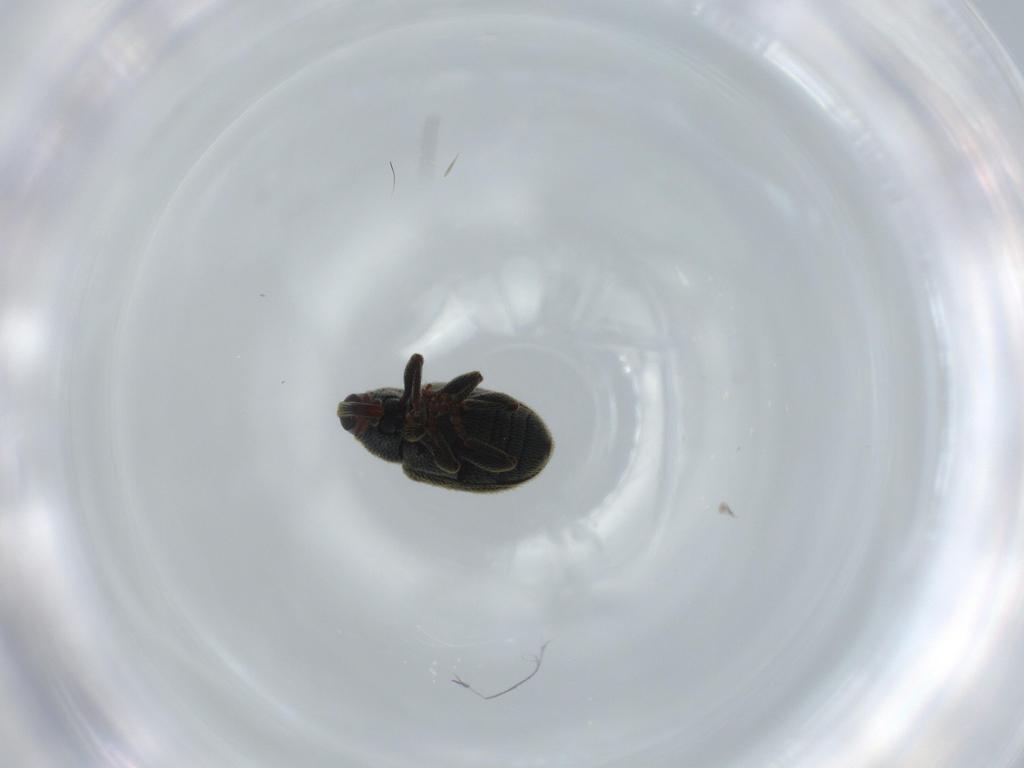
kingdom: Animalia
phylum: Arthropoda
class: Insecta
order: Coleoptera
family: Curculionidae
